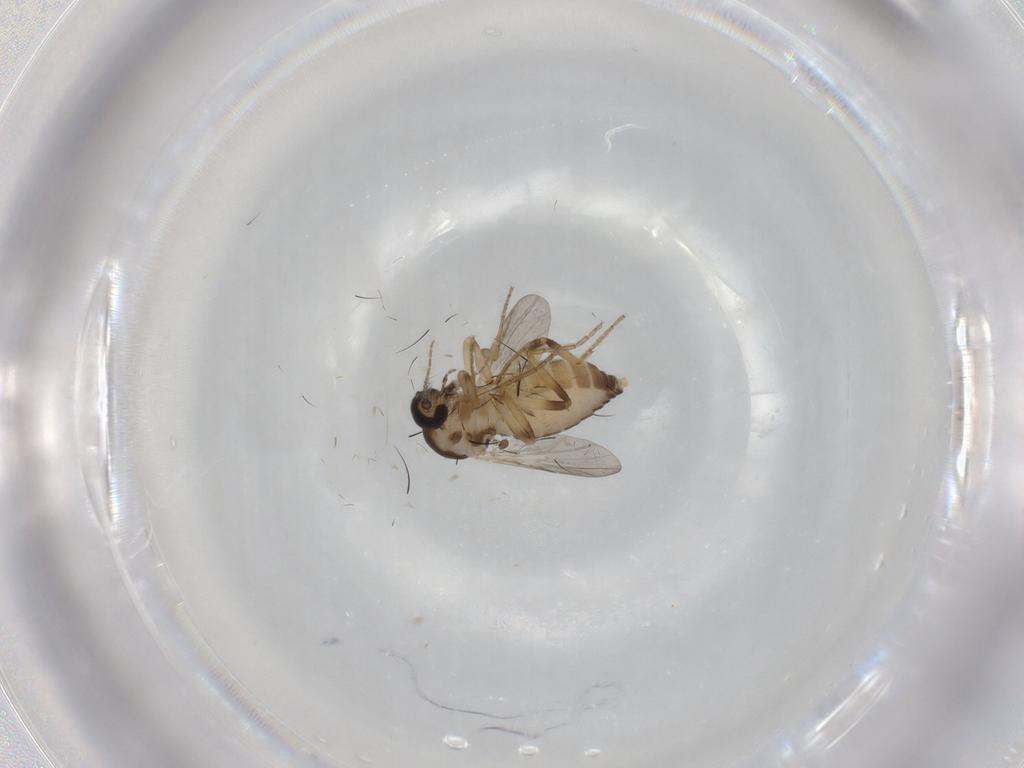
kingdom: Animalia
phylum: Arthropoda
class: Insecta
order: Diptera
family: Ceratopogonidae
